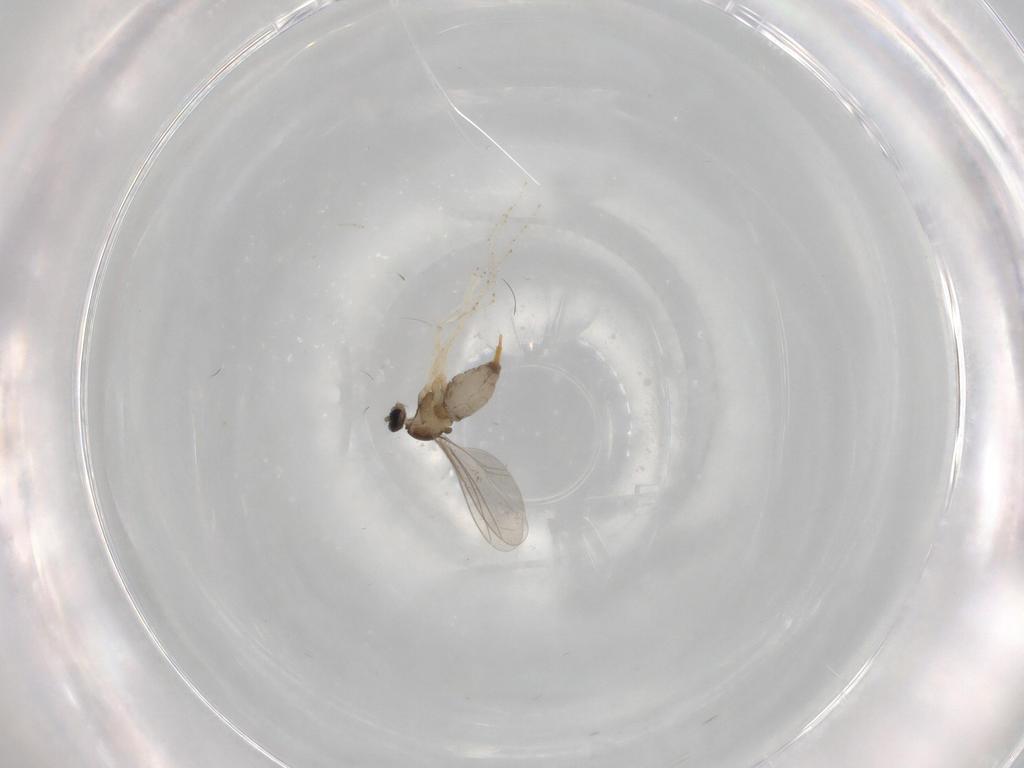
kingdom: Animalia
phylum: Arthropoda
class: Insecta
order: Diptera
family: Cecidomyiidae
